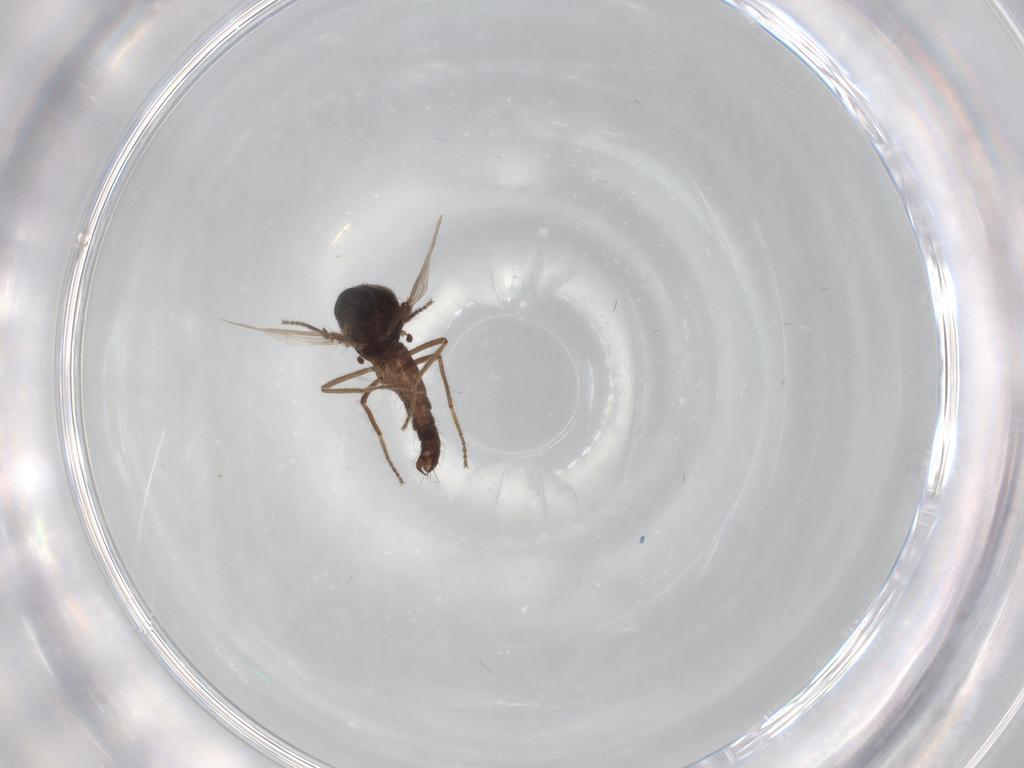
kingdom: Animalia
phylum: Arthropoda
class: Insecta
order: Diptera
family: Ceratopogonidae
